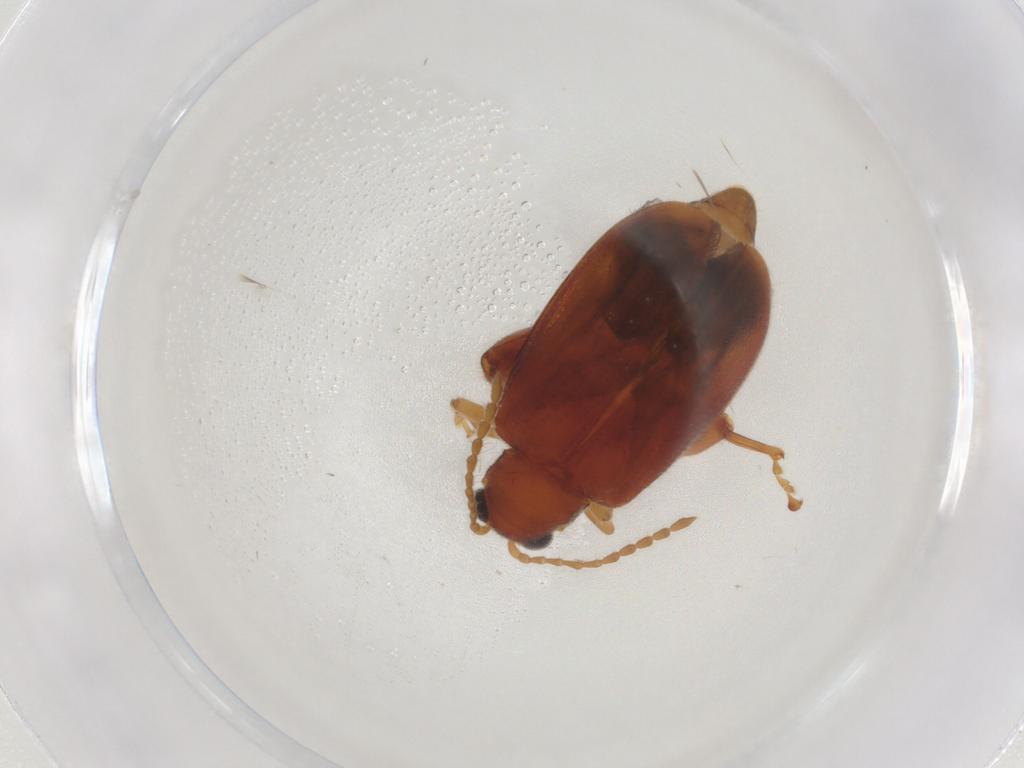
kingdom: Animalia
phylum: Arthropoda
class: Insecta
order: Coleoptera
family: Chrysomelidae
